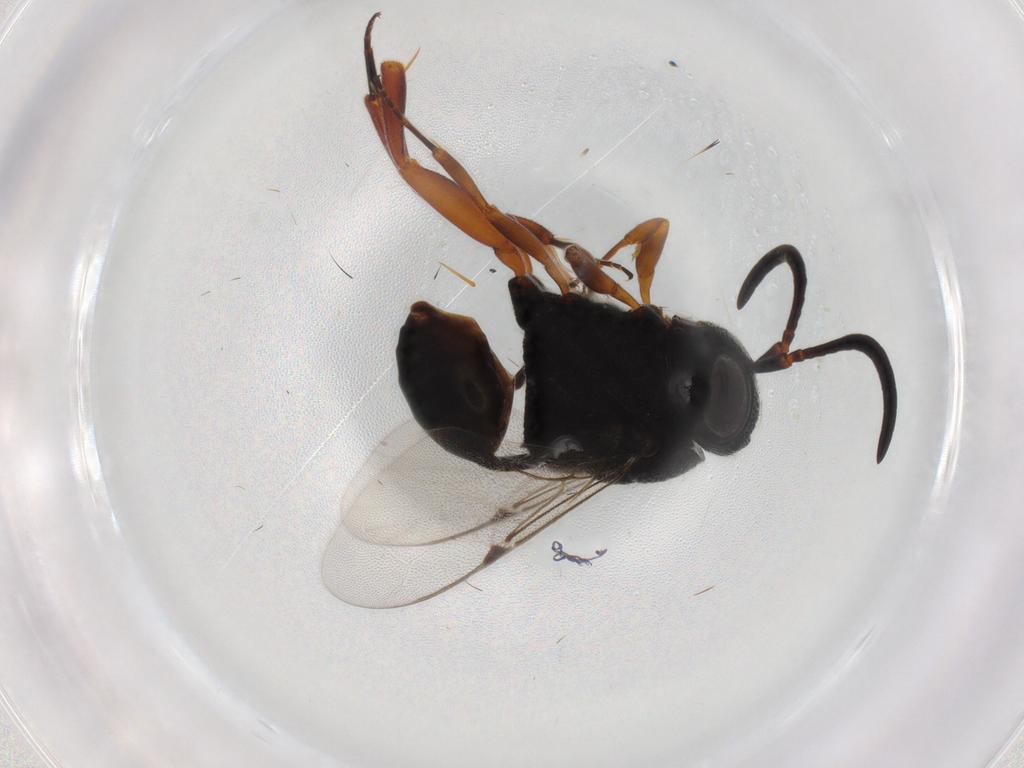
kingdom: Animalia
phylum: Arthropoda
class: Insecta
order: Hymenoptera
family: Evaniidae
